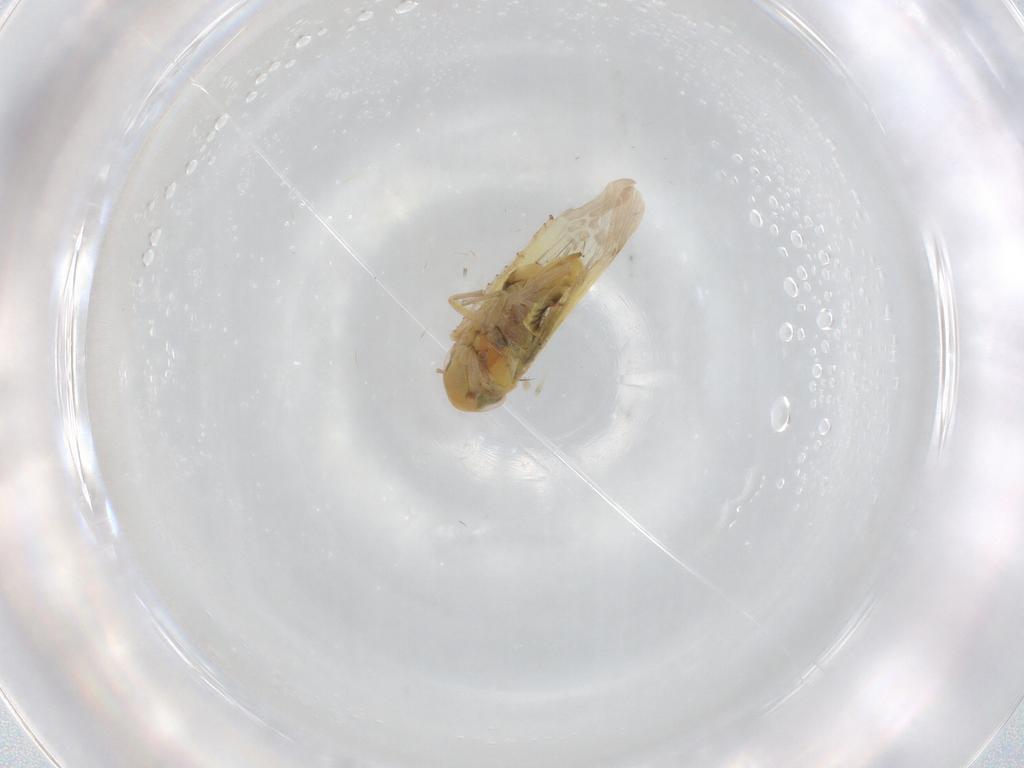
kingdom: Animalia
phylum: Arthropoda
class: Insecta
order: Hemiptera
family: Cicadellidae
